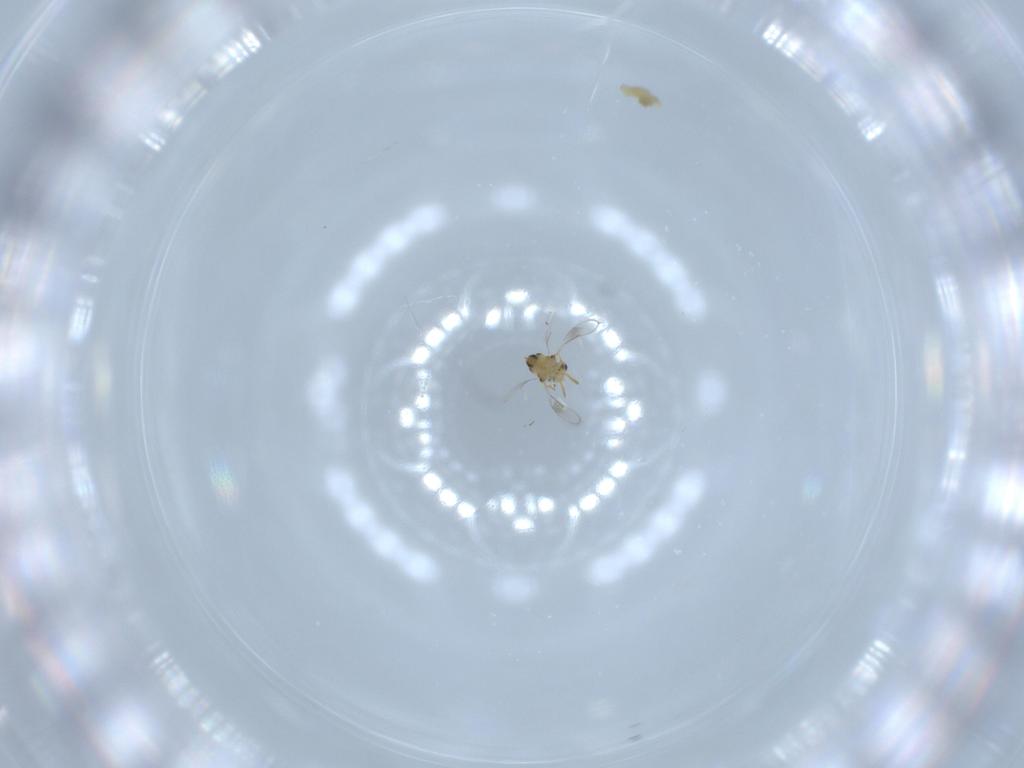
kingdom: Animalia
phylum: Arthropoda
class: Insecta
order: Hymenoptera
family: Aphelinidae
